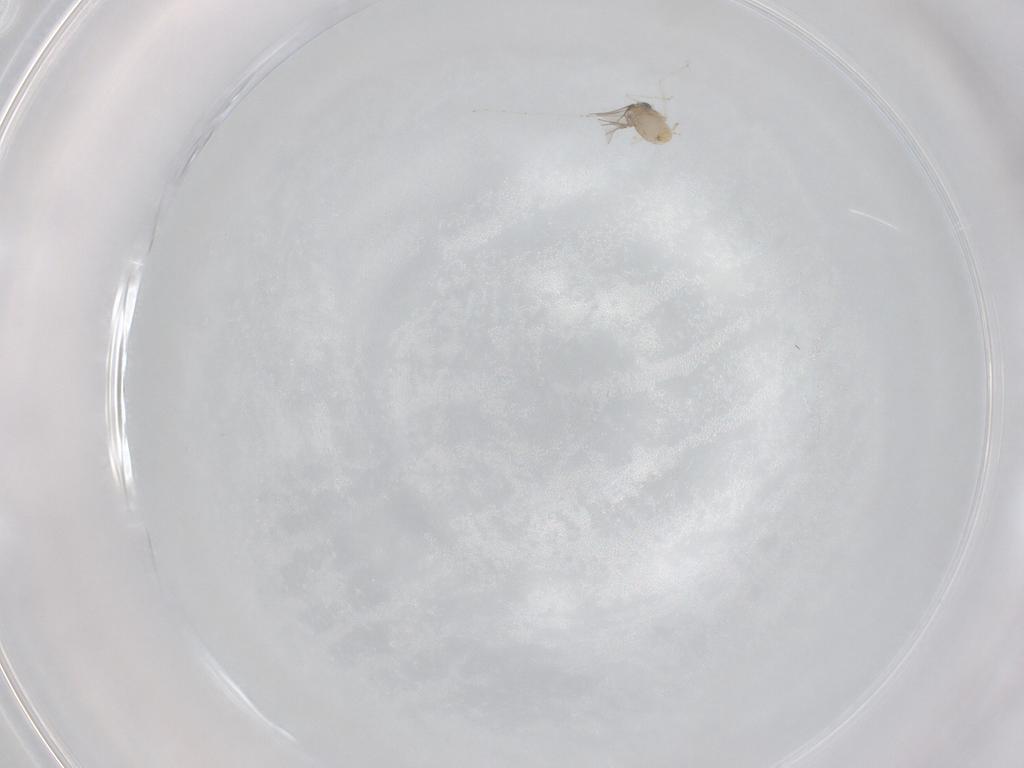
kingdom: Animalia
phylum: Arthropoda
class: Insecta
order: Diptera
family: Cecidomyiidae
